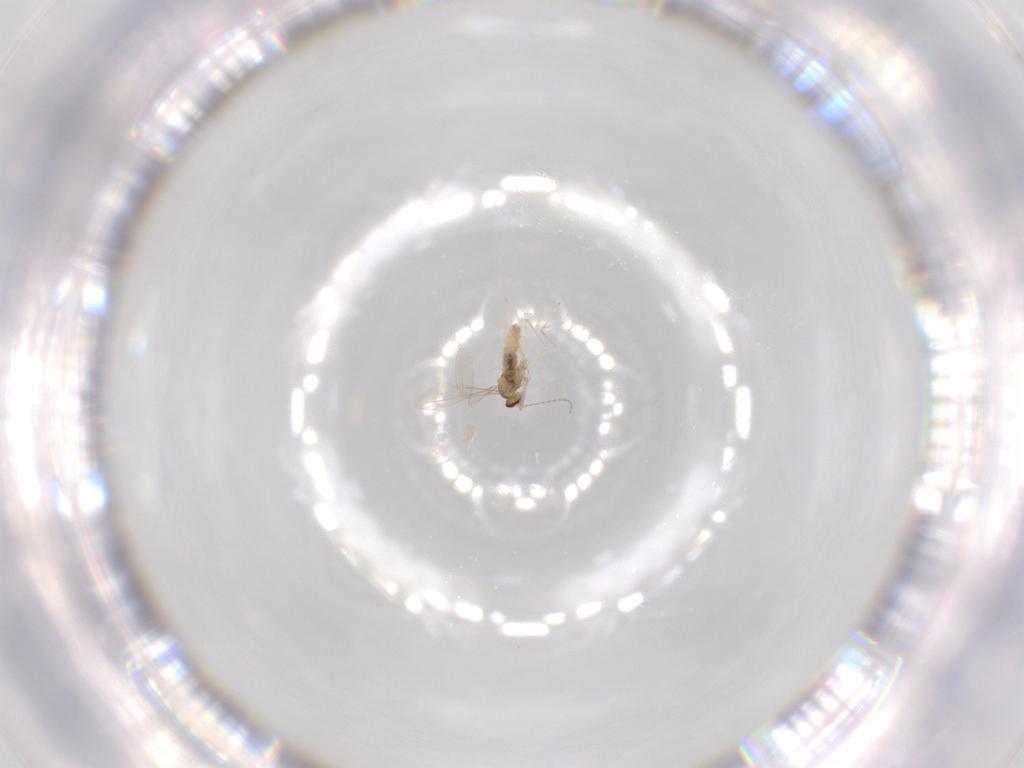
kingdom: Animalia
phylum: Arthropoda
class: Insecta
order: Diptera
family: Cecidomyiidae
